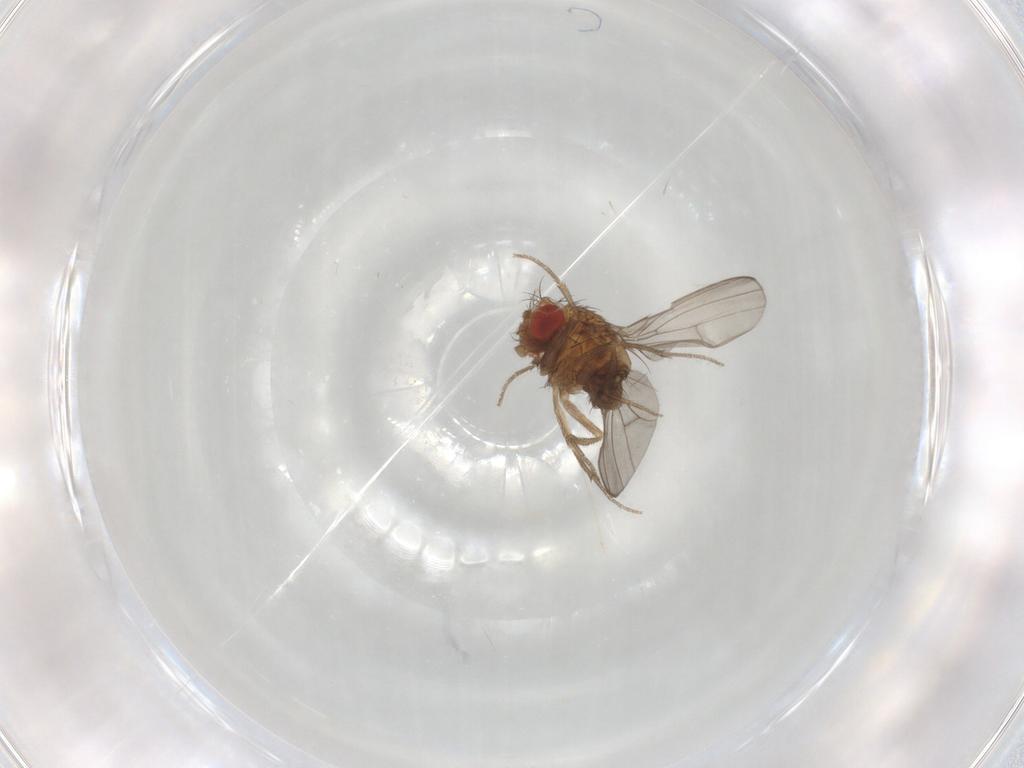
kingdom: Animalia
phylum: Arthropoda
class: Insecta
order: Diptera
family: Drosophilidae
